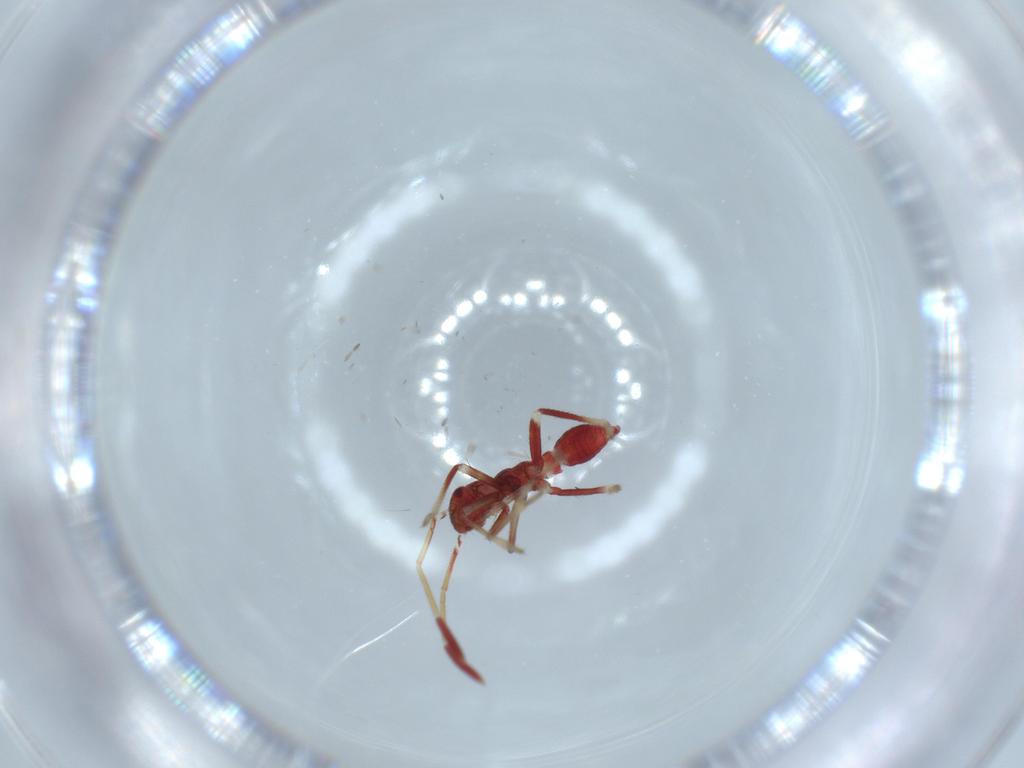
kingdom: Animalia
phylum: Arthropoda
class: Insecta
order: Hemiptera
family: Miridae
